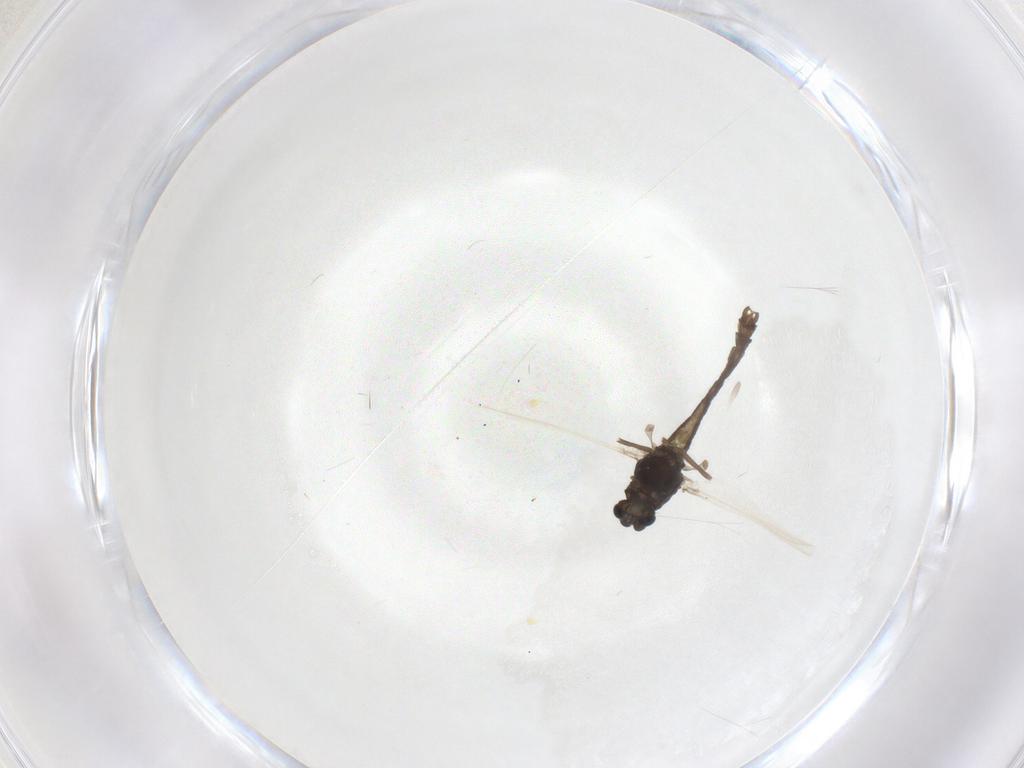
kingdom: Animalia
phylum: Arthropoda
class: Insecta
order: Diptera
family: Chironomidae
